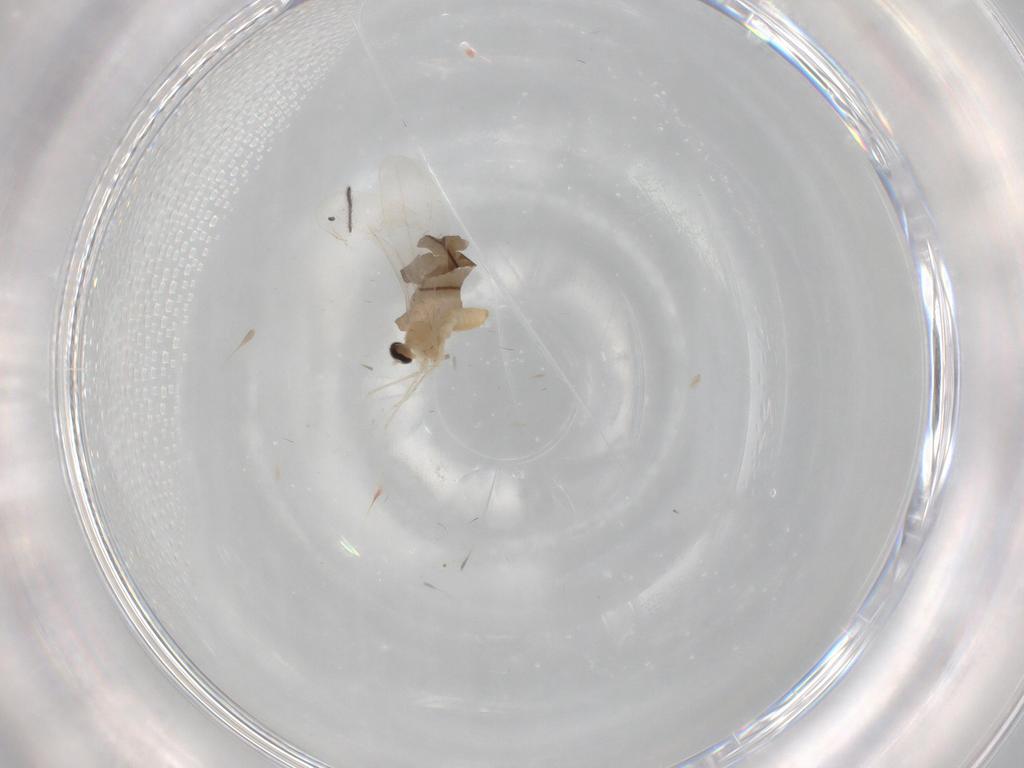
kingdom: Animalia
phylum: Arthropoda
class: Insecta
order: Diptera
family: Cecidomyiidae
